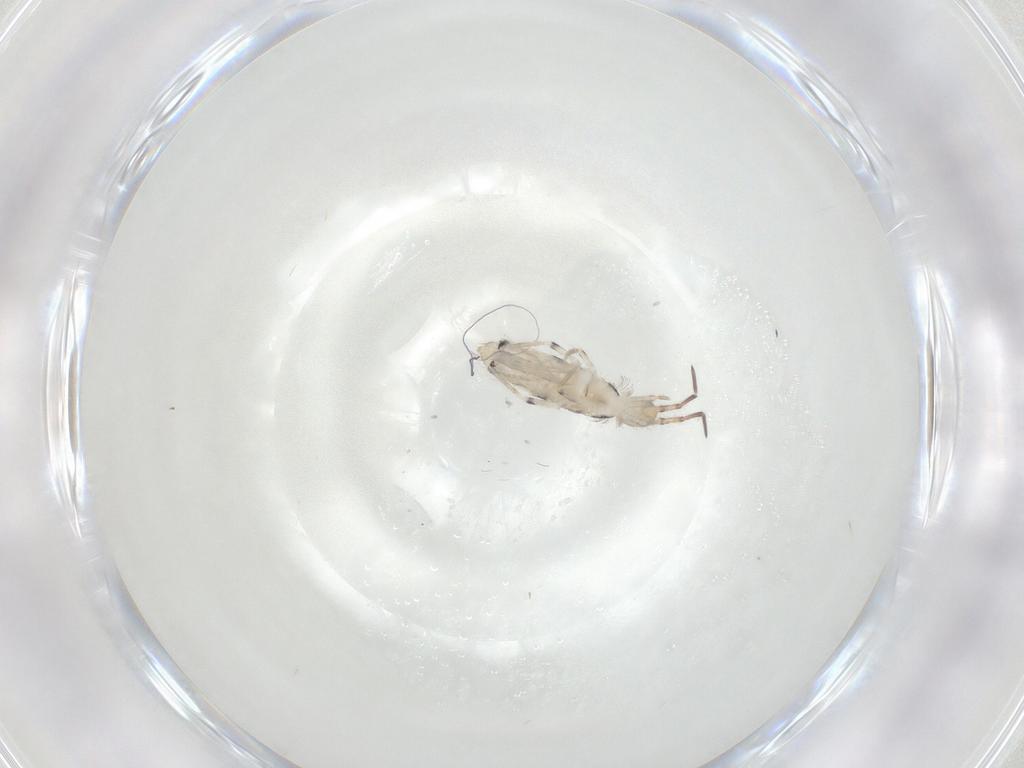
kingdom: Animalia
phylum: Arthropoda
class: Collembola
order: Entomobryomorpha
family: Entomobryidae
